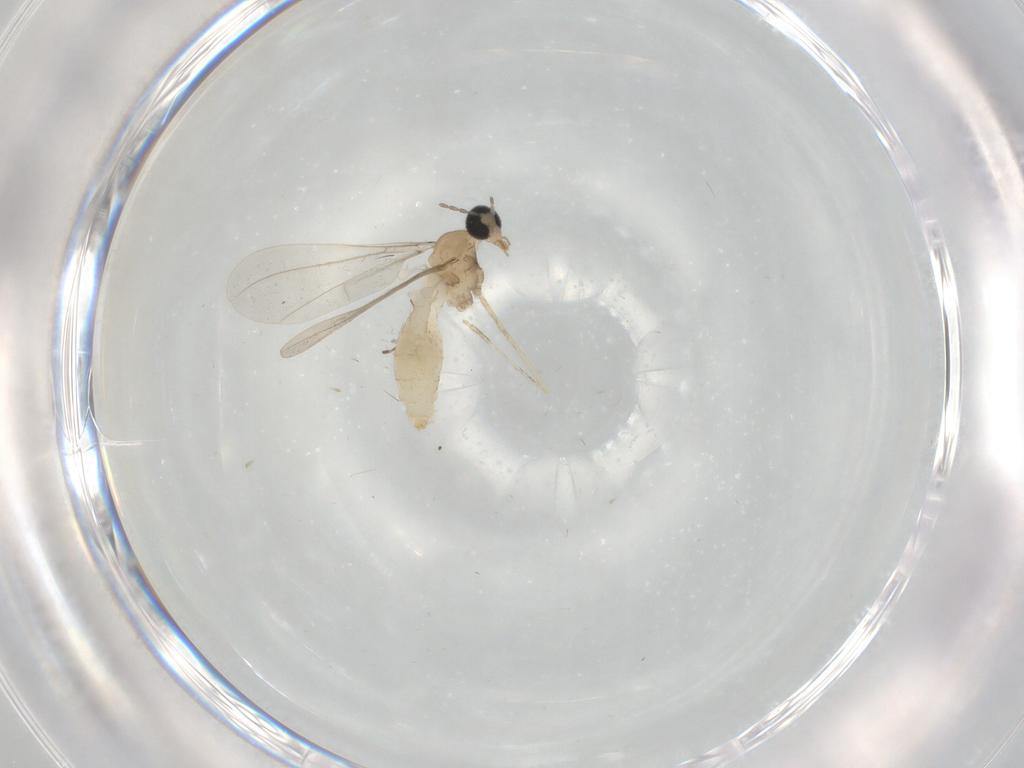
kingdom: Animalia
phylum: Arthropoda
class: Insecta
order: Diptera
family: Cecidomyiidae
